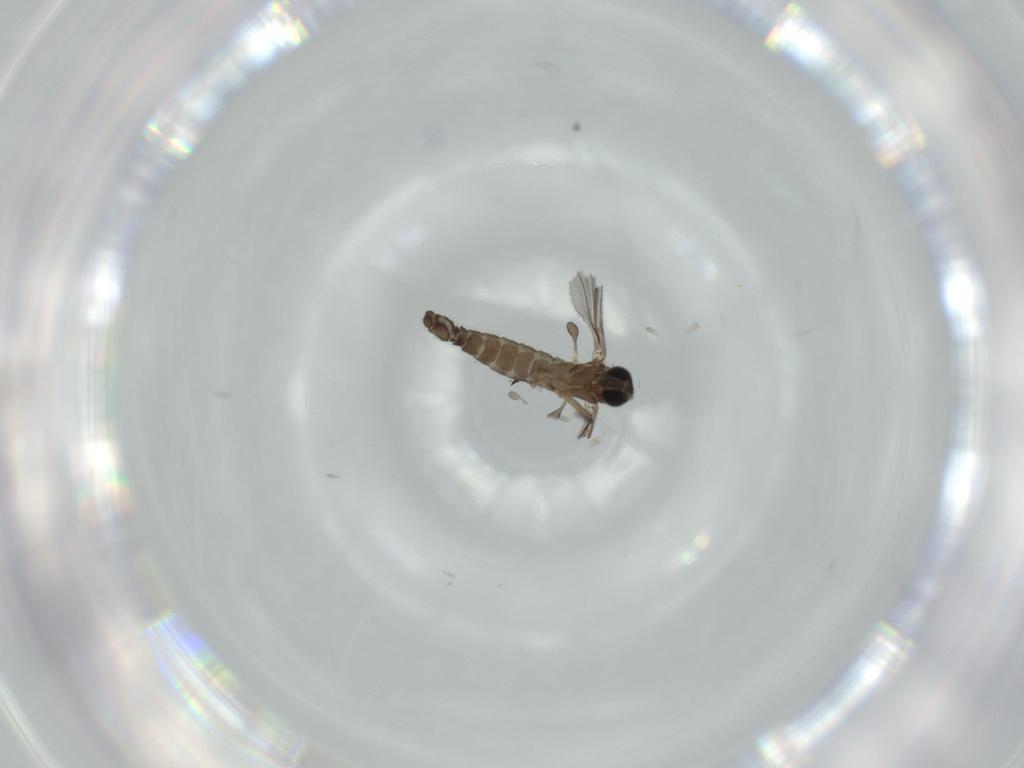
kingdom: Animalia
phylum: Arthropoda
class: Insecta
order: Diptera
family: Sciaridae
